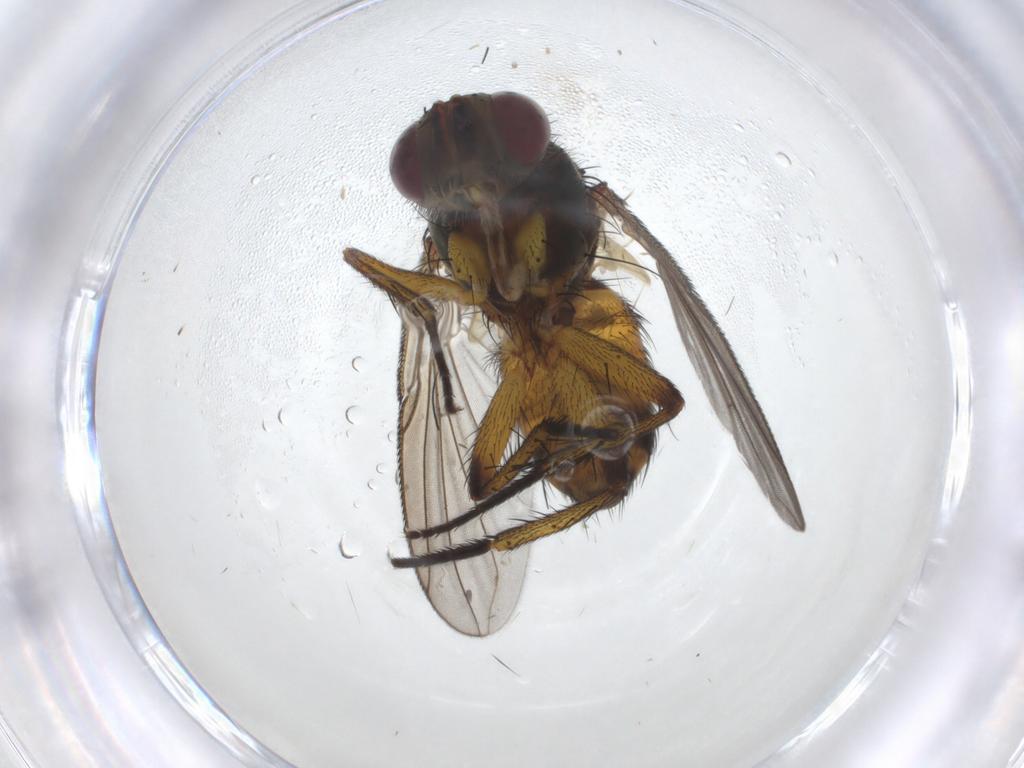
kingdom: Animalia
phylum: Arthropoda
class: Insecta
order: Diptera
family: Tachinidae
